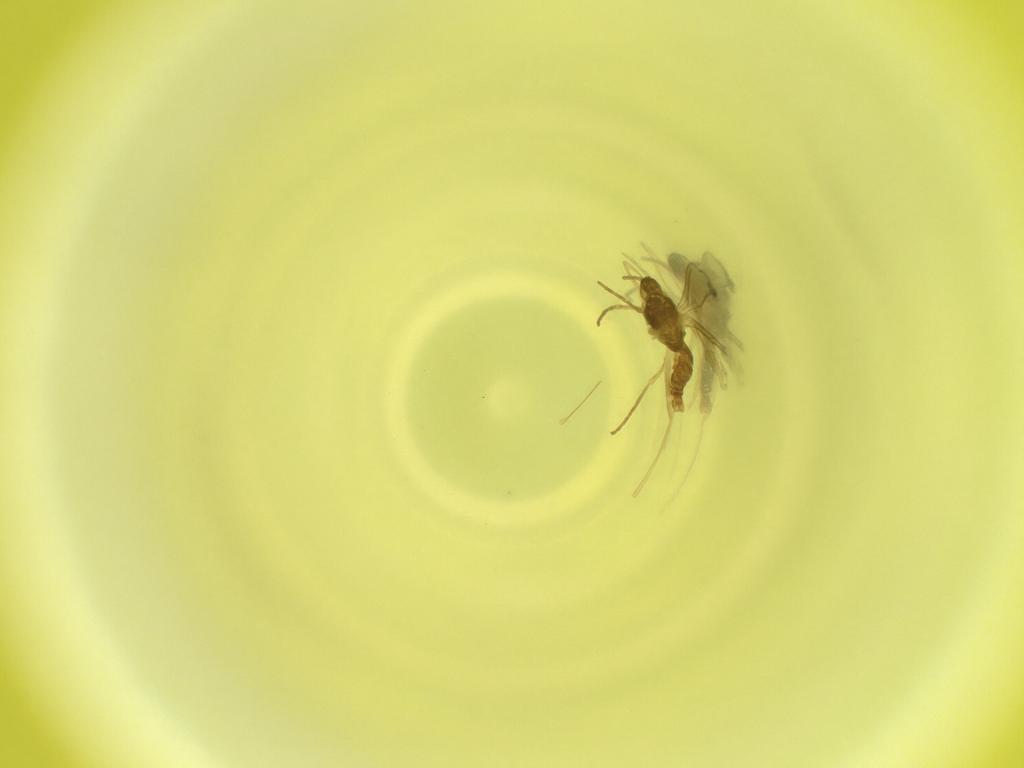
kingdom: Animalia
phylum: Arthropoda
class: Insecta
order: Diptera
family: Cecidomyiidae
